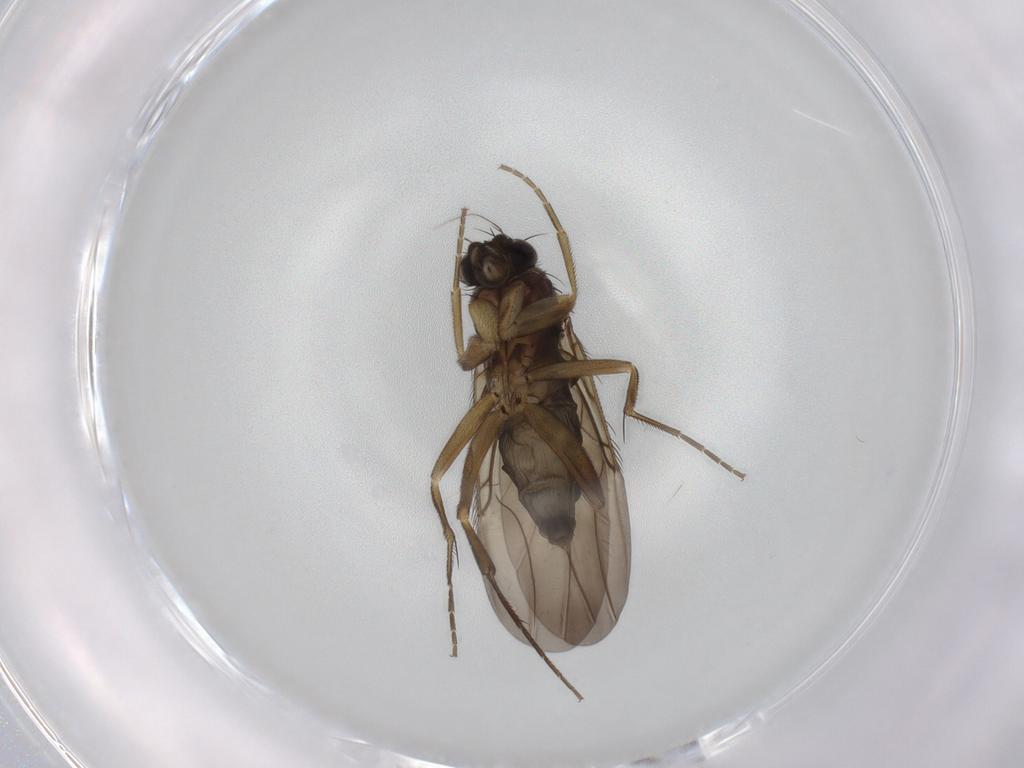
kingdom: Animalia
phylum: Arthropoda
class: Insecta
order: Diptera
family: Phoridae
